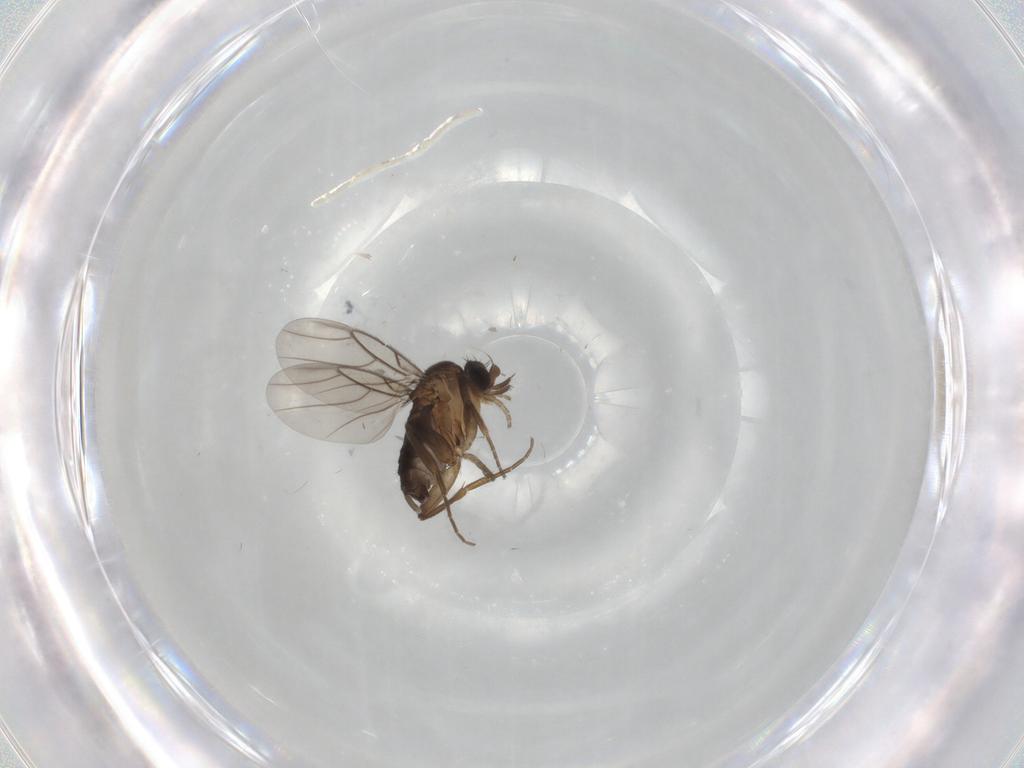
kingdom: Animalia
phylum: Arthropoda
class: Insecta
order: Diptera
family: Phoridae
